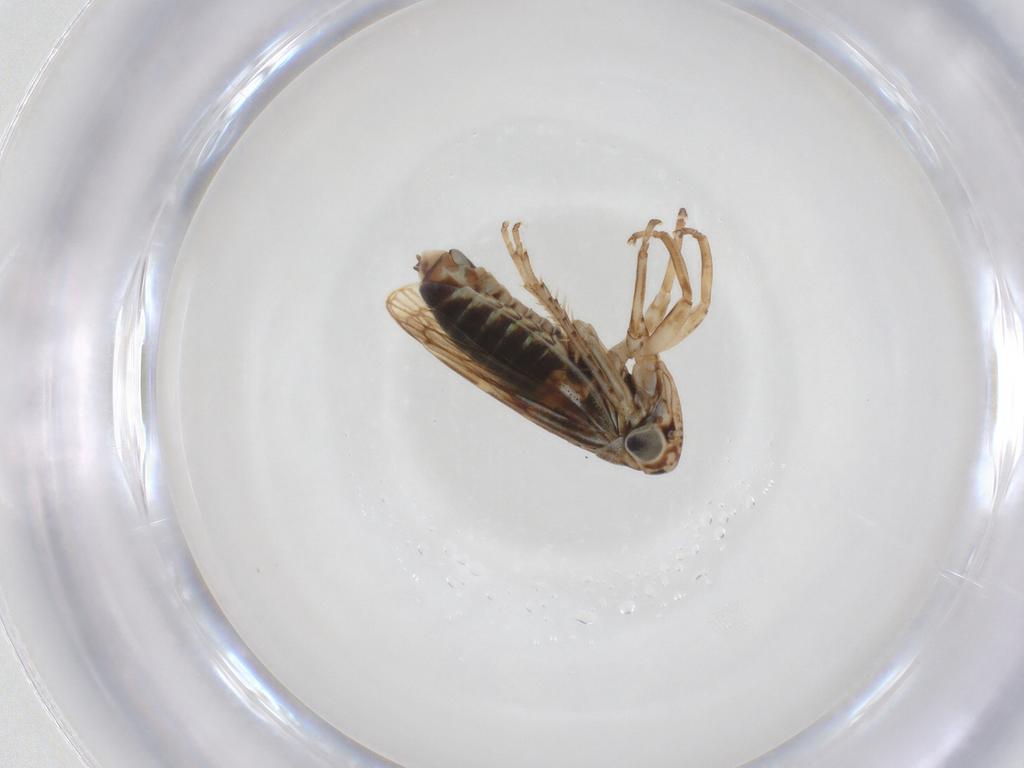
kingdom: Animalia
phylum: Arthropoda
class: Insecta
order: Hemiptera
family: Cicadellidae
